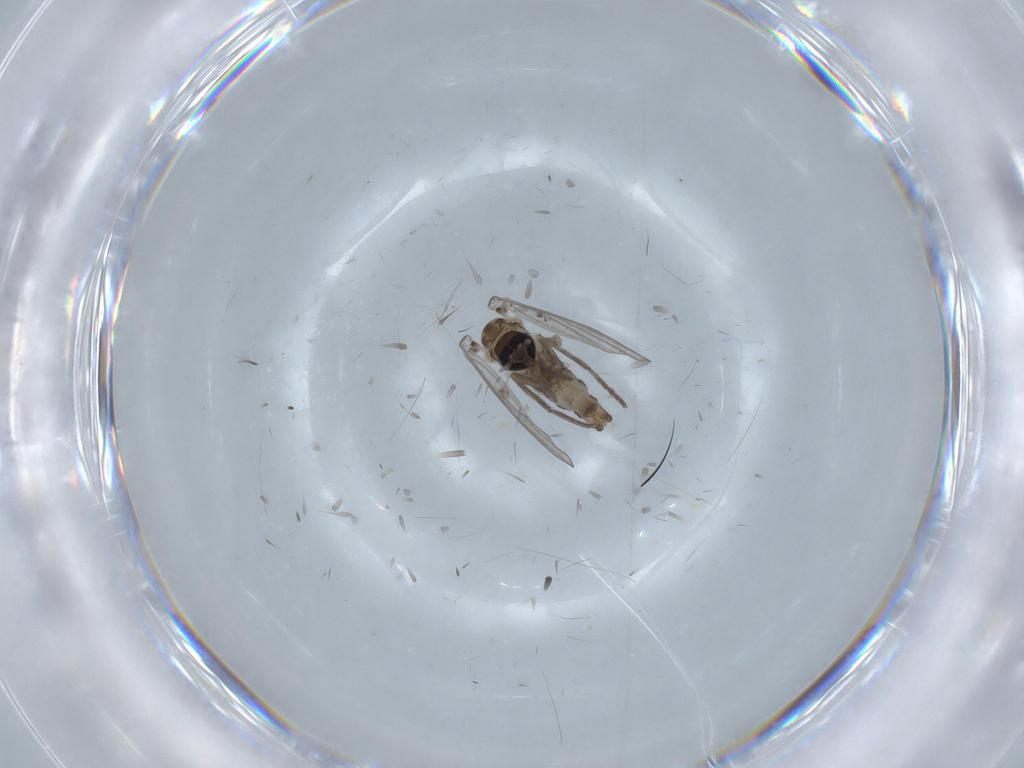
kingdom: Animalia
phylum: Arthropoda
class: Insecta
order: Diptera
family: Drosophilidae
